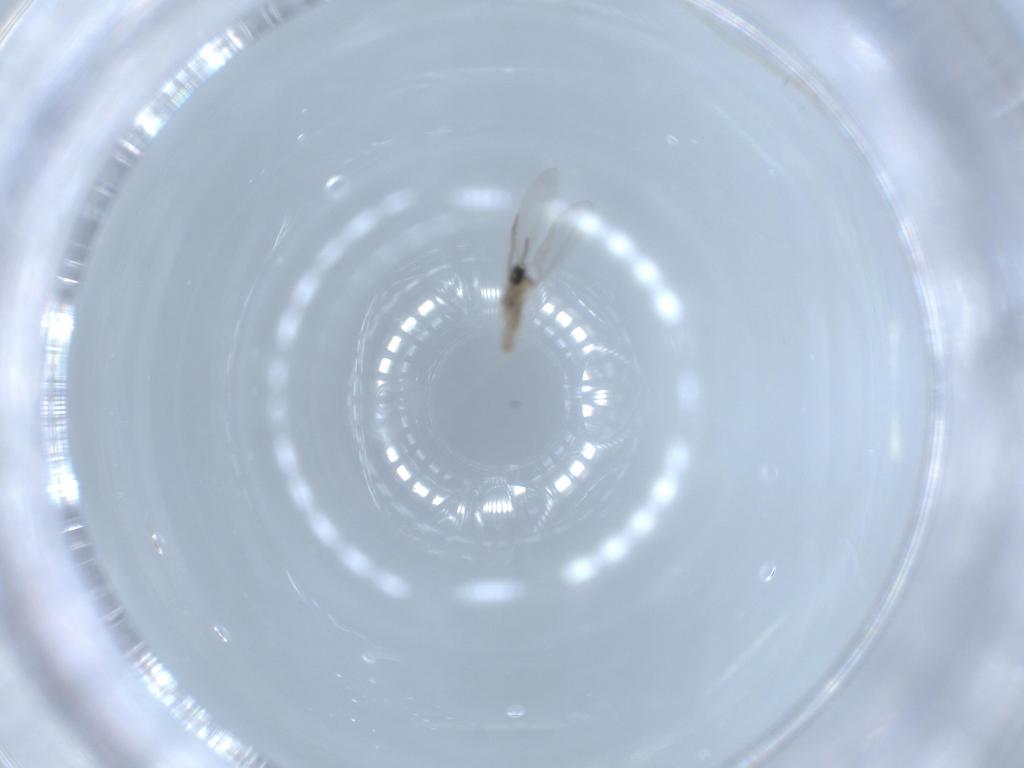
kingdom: Animalia
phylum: Arthropoda
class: Insecta
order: Diptera
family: Cecidomyiidae
